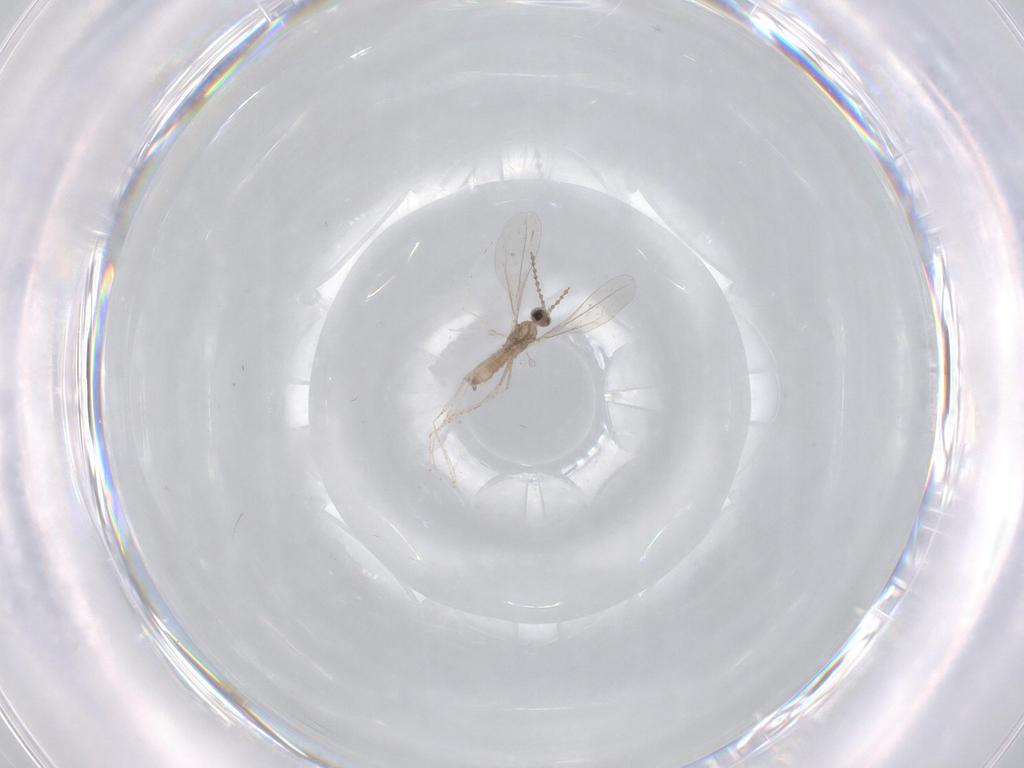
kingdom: Animalia
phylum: Arthropoda
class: Insecta
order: Diptera
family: Cecidomyiidae
